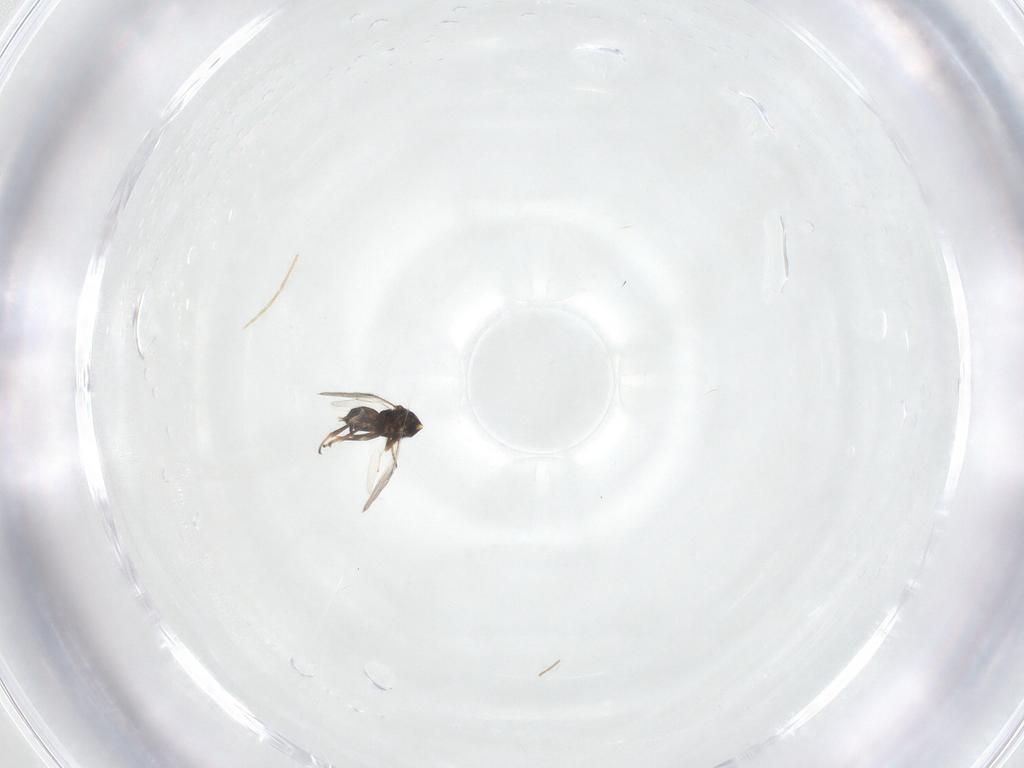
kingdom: Animalia
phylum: Arthropoda
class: Insecta
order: Hymenoptera
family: Encyrtidae
